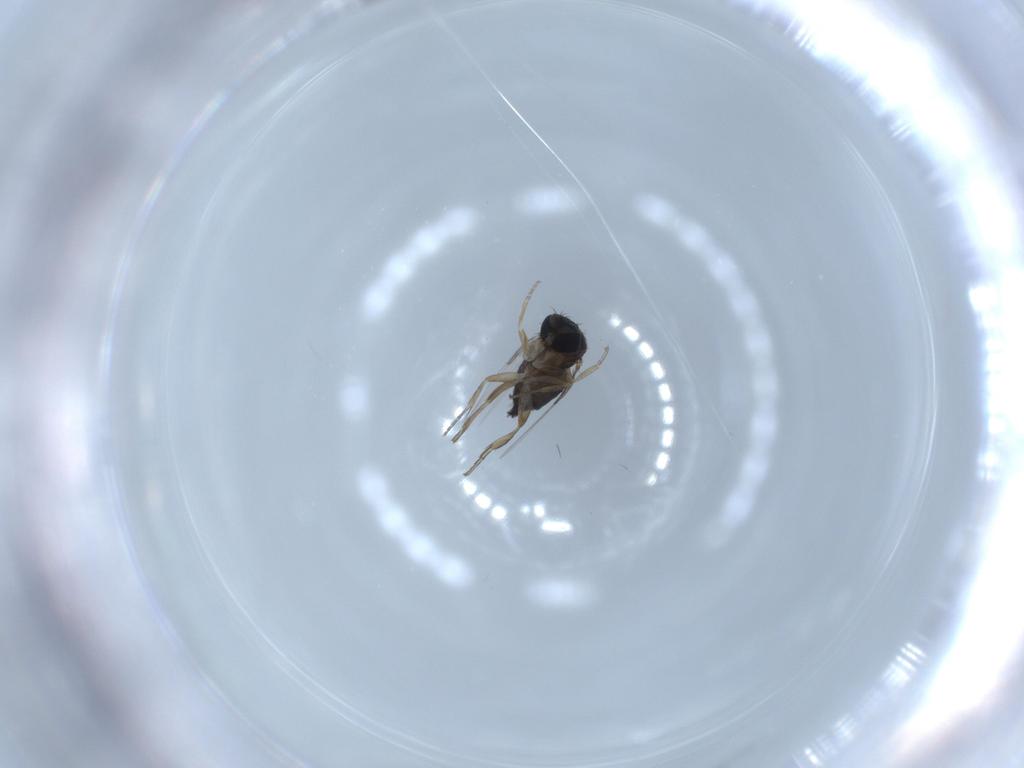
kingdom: Animalia
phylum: Arthropoda
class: Insecta
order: Diptera
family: Phoridae
